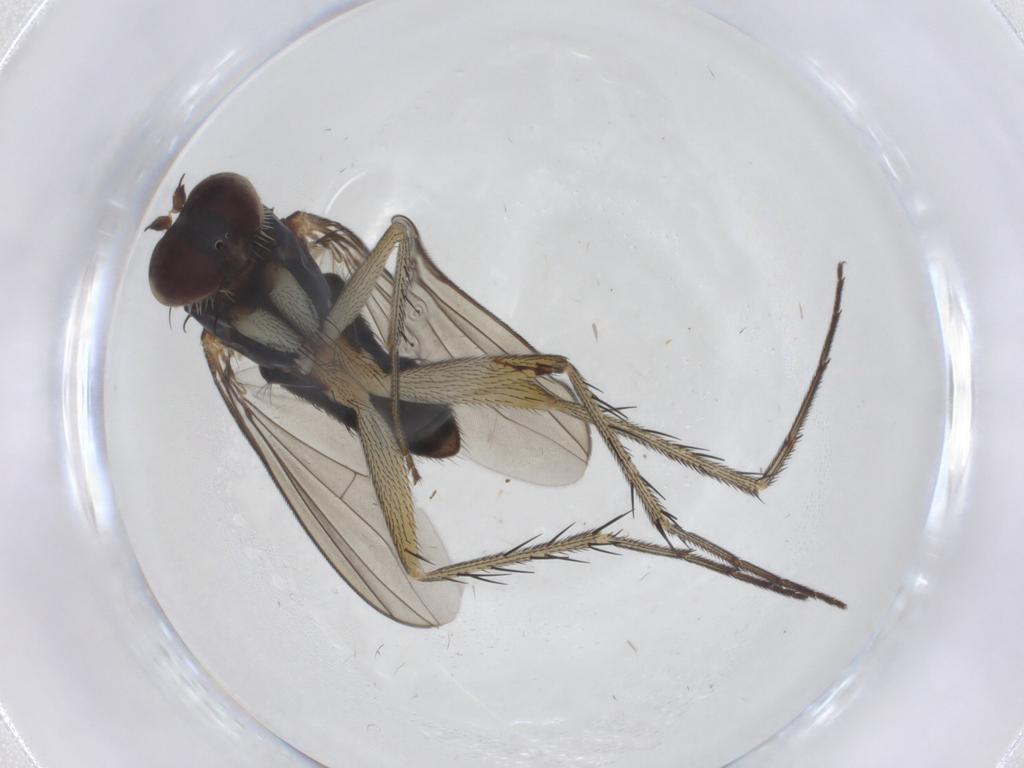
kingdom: Animalia
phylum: Arthropoda
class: Insecta
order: Diptera
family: Dolichopodidae
